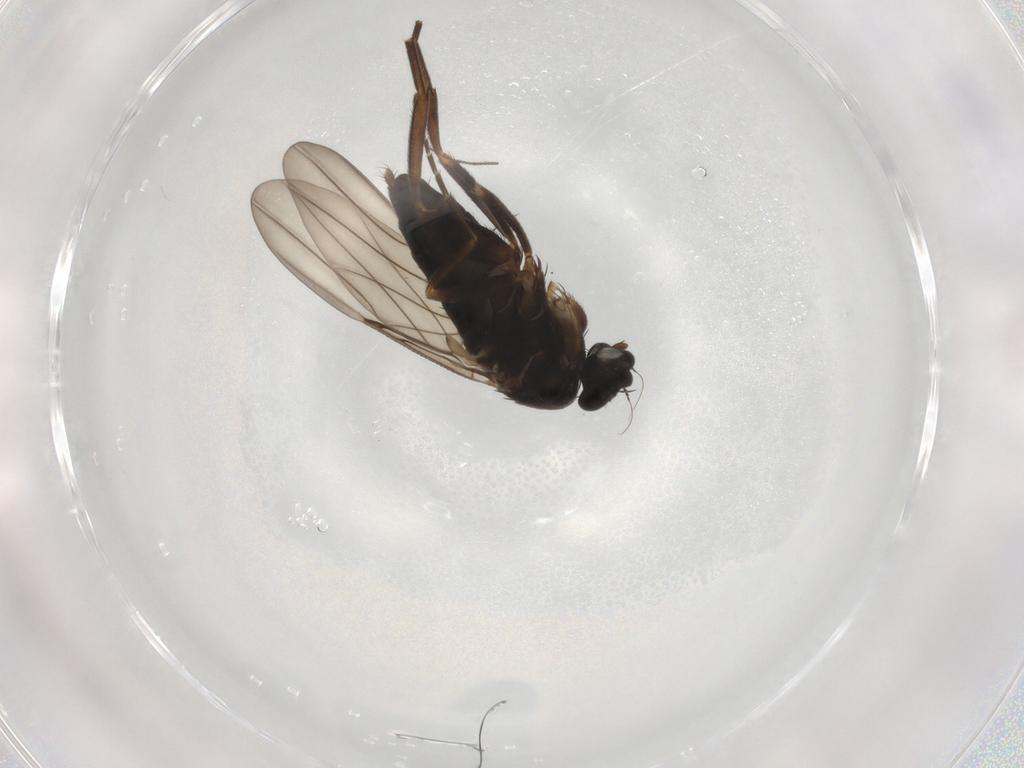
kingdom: Animalia
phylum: Arthropoda
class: Insecta
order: Diptera
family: Phoridae
